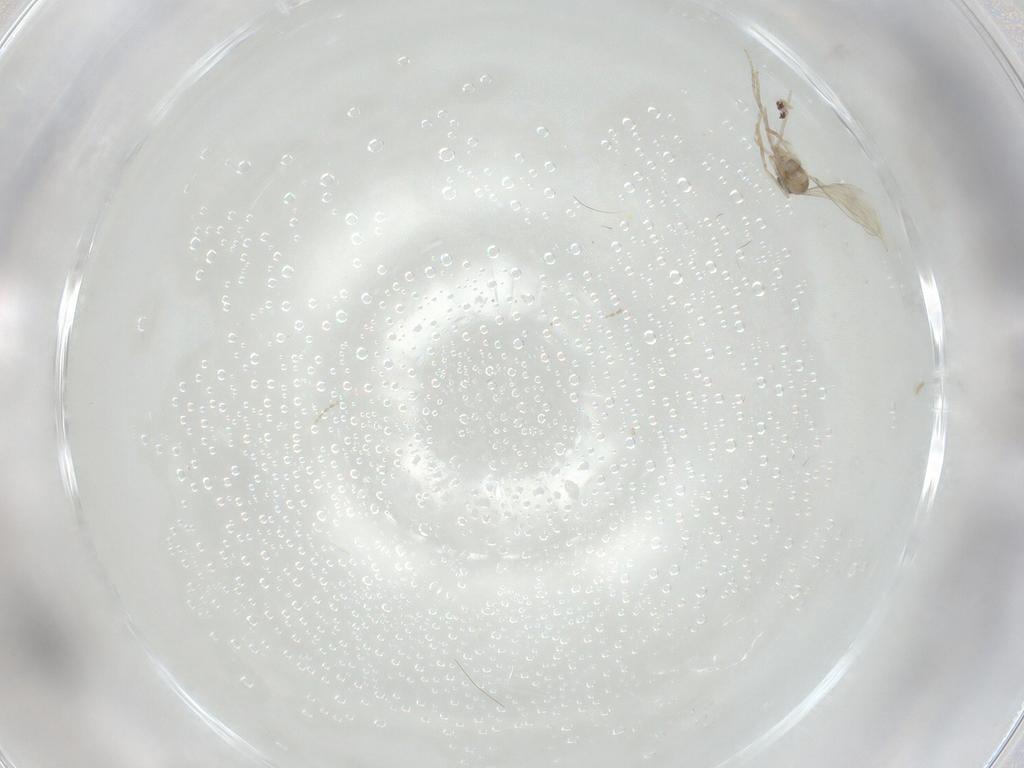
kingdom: Animalia
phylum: Arthropoda
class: Insecta
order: Diptera
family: Cecidomyiidae
